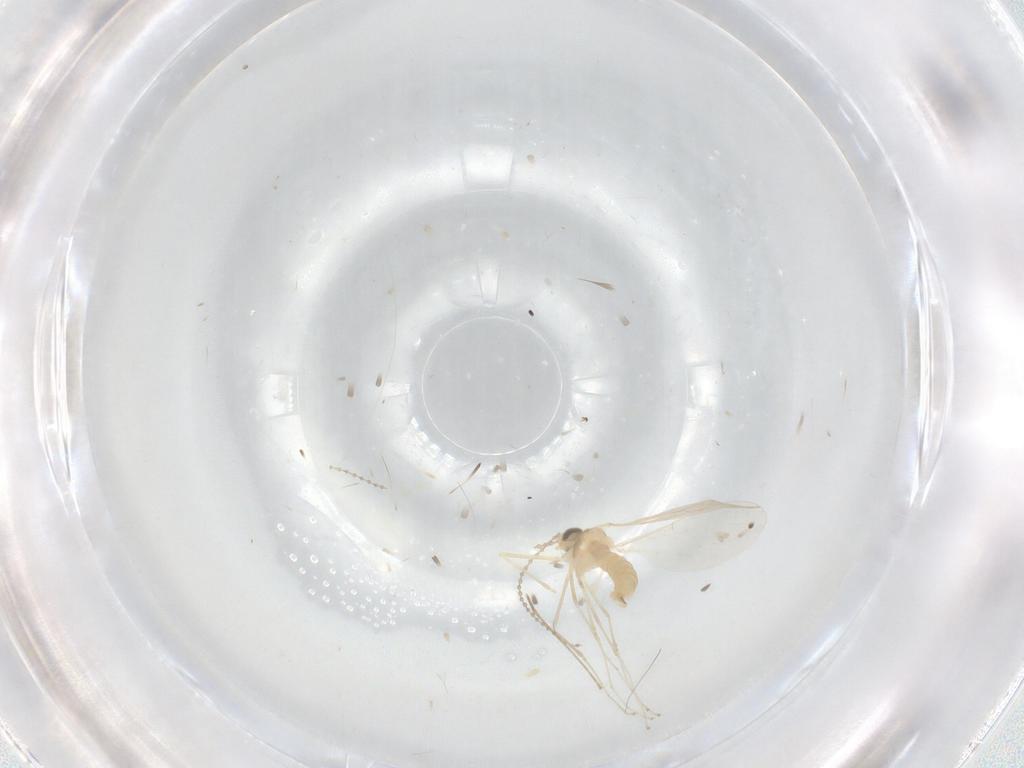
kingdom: Animalia
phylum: Arthropoda
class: Insecta
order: Diptera
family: Cecidomyiidae
